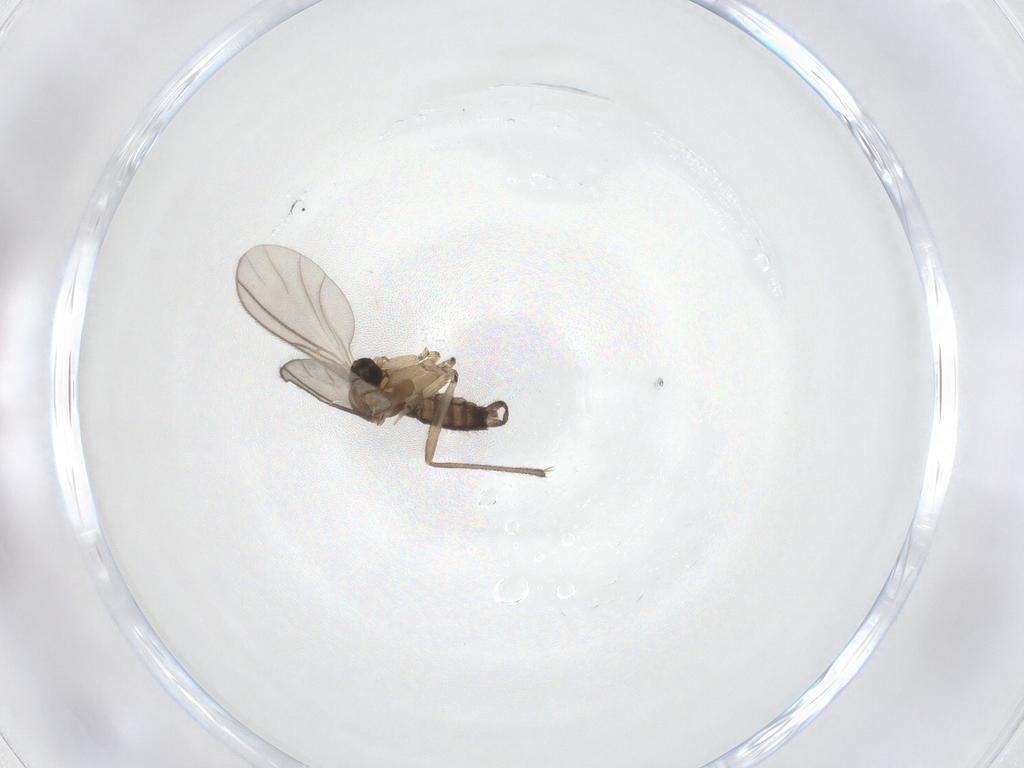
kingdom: Animalia
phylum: Arthropoda
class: Insecta
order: Diptera
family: Sciaridae
